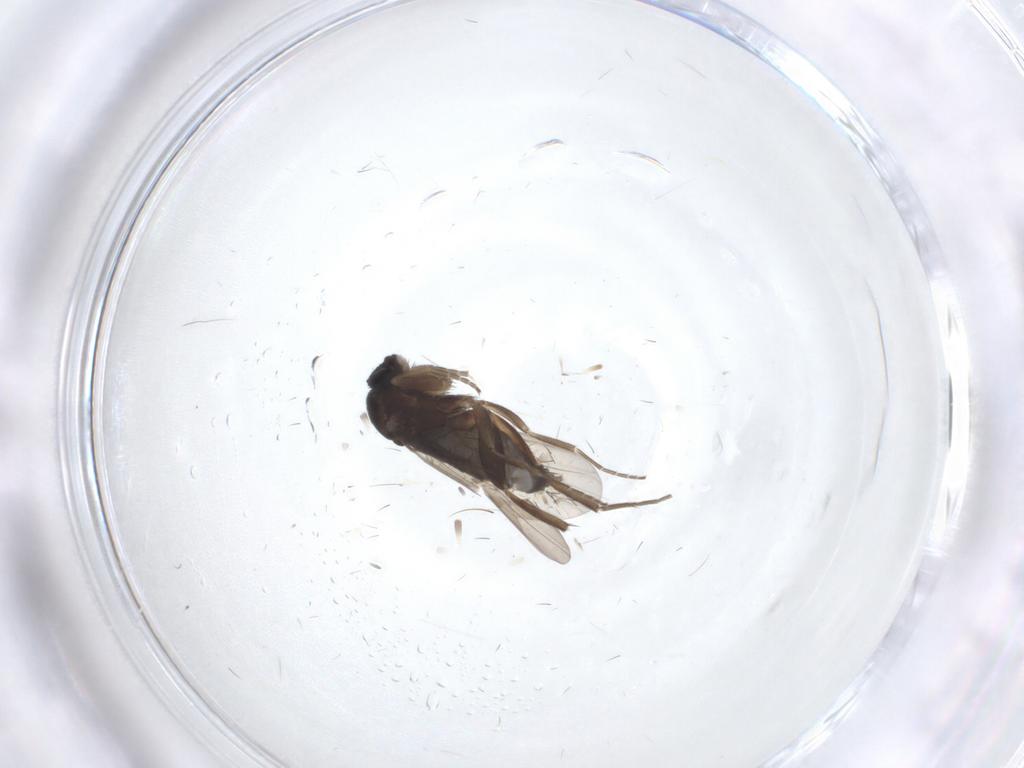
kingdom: Animalia
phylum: Arthropoda
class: Insecta
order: Diptera
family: Phoridae
